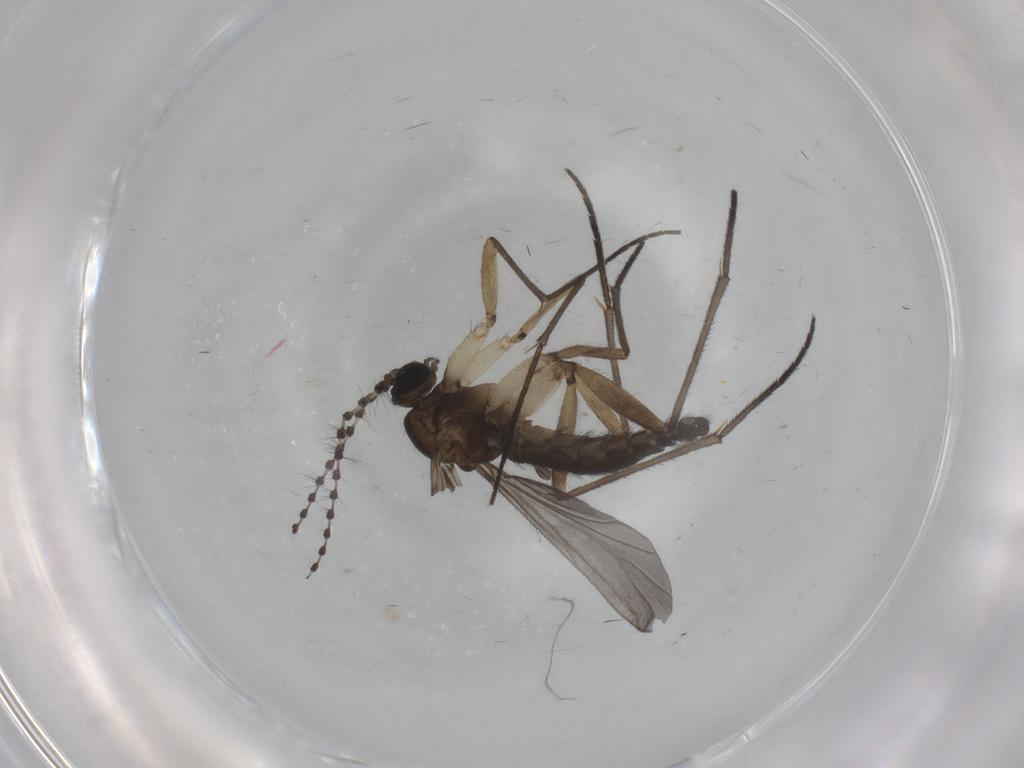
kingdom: Animalia
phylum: Arthropoda
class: Insecta
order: Diptera
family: Sciaridae
